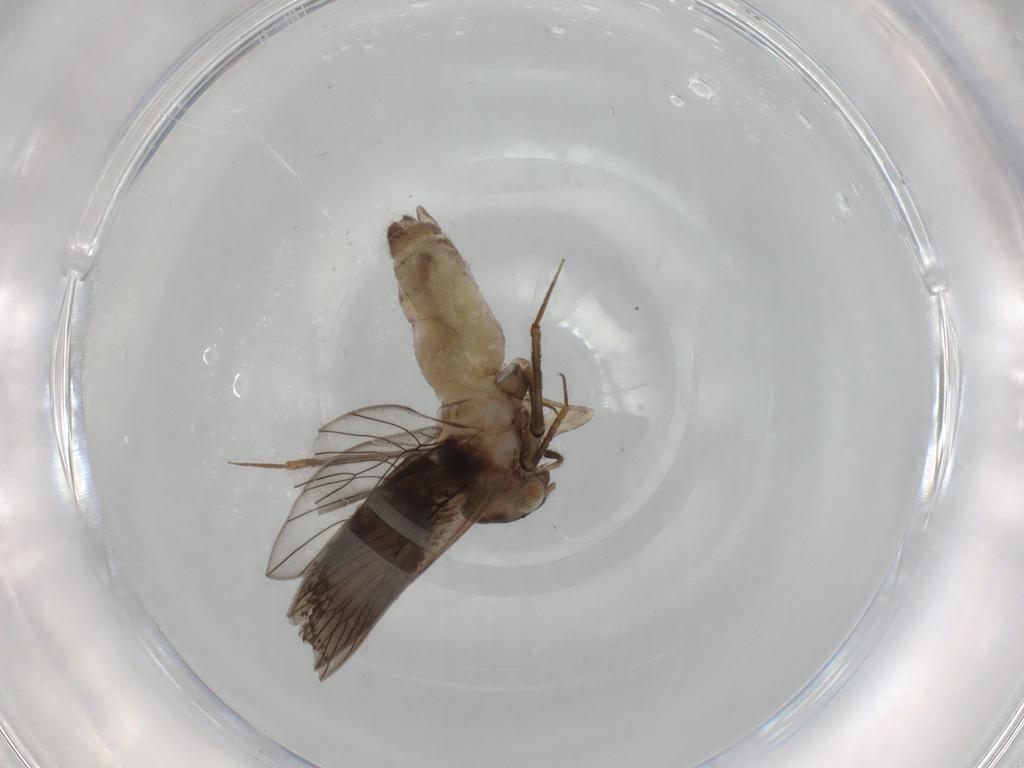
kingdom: Animalia
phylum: Arthropoda
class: Insecta
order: Psocodea
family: Lepidopsocidae
